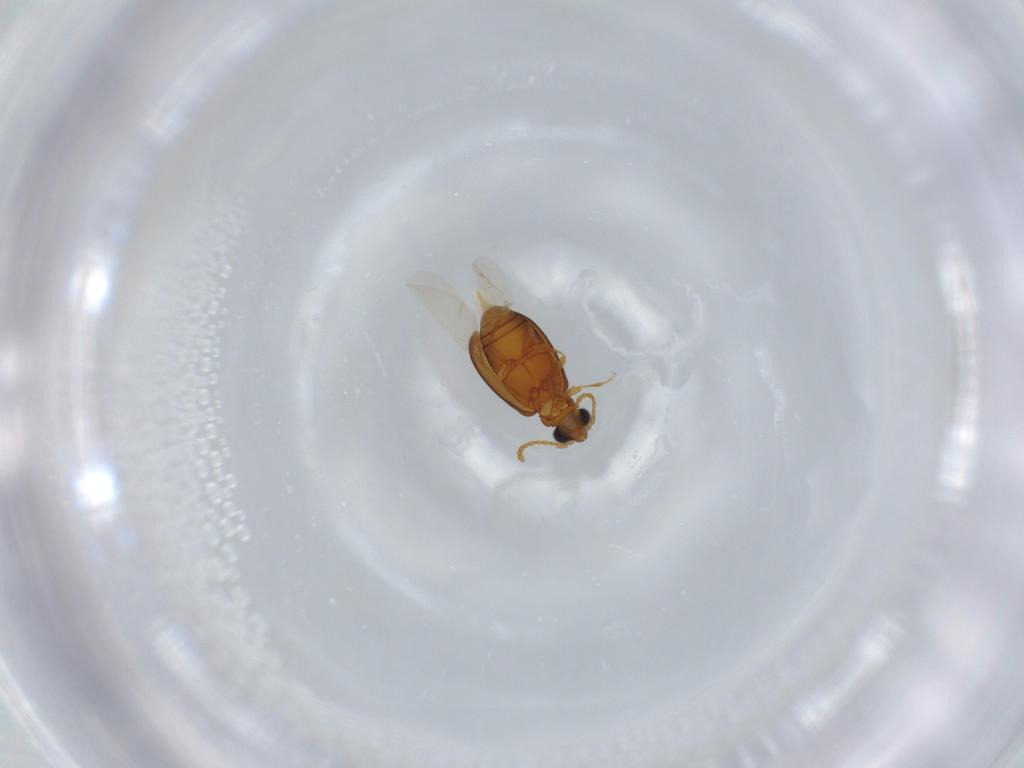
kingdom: Animalia
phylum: Arthropoda
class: Insecta
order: Coleoptera
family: Aderidae
